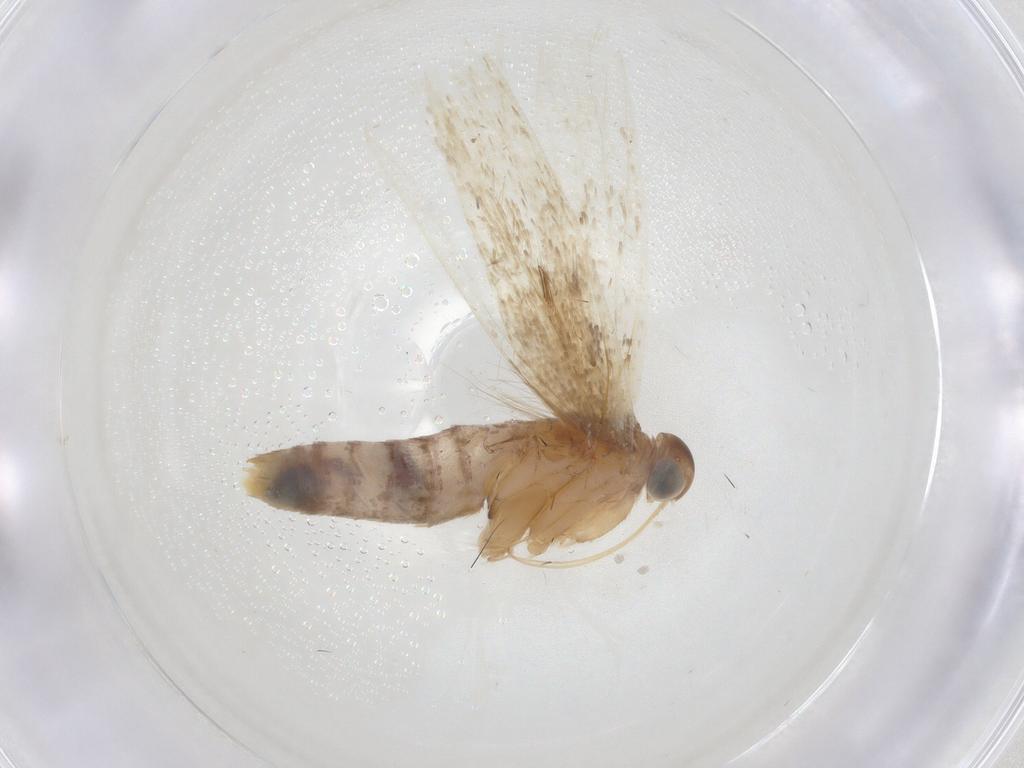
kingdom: Animalia
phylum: Arthropoda
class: Insecta
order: Lepidoptera
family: Gelechiidae
